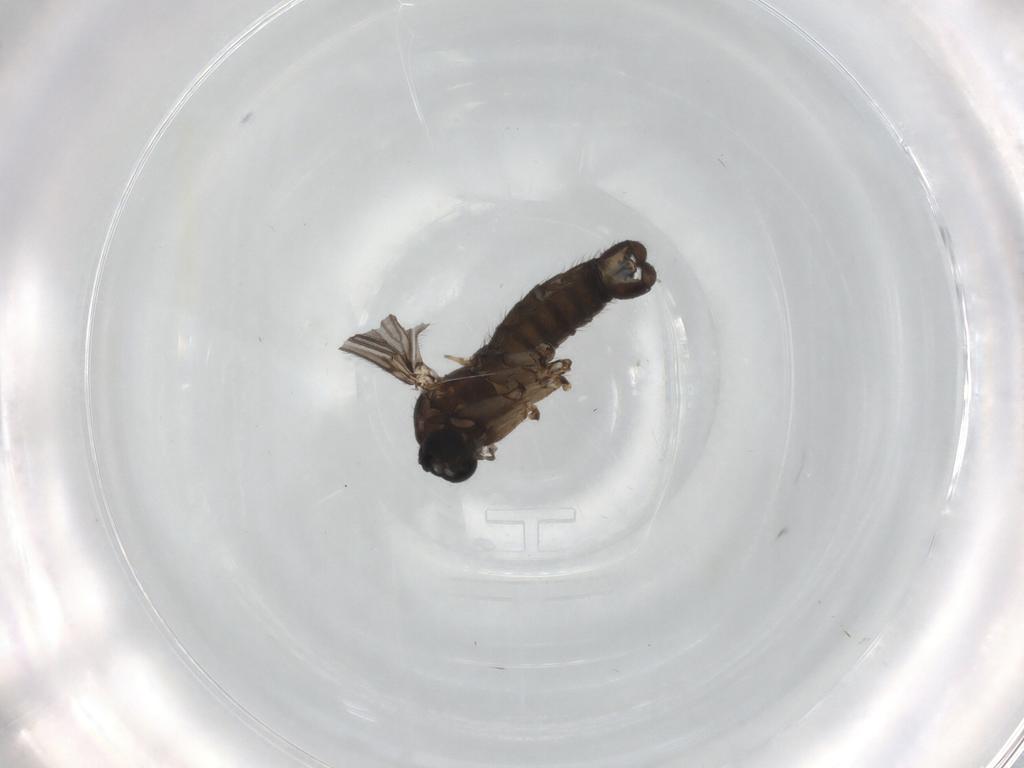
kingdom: Animalia
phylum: Arthropoda
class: Insecta
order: Diptera
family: Sciaridae
